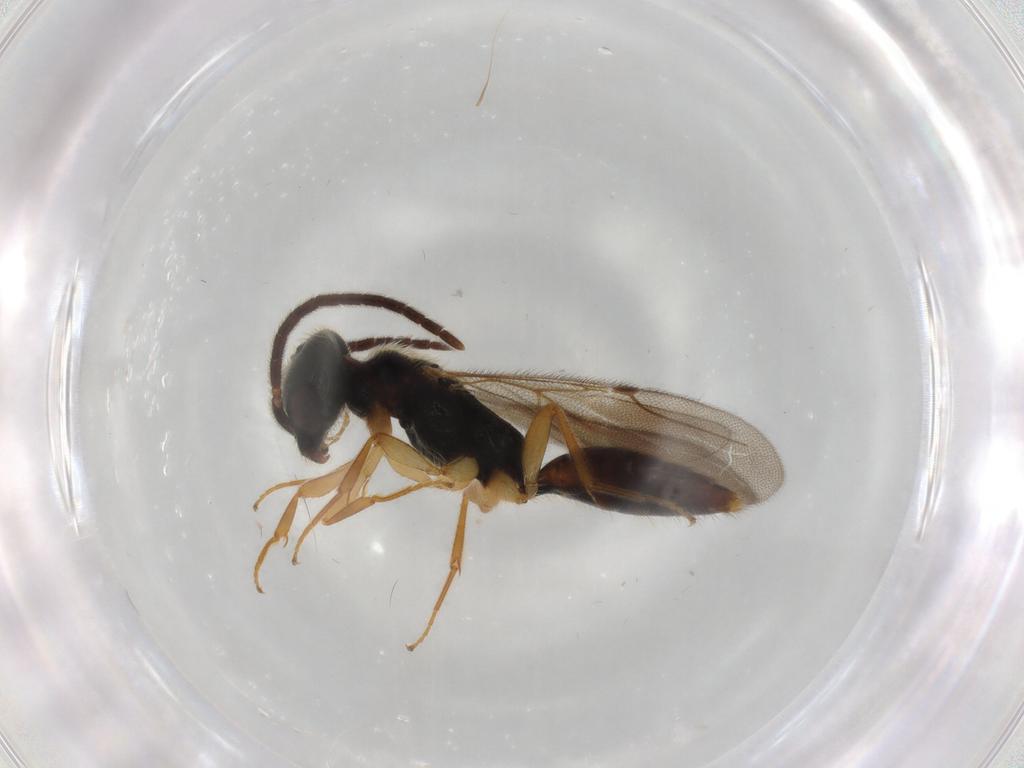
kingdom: Animalia
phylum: Arthropoda
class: Insecta
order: Hymenoptera
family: Bethylidae
